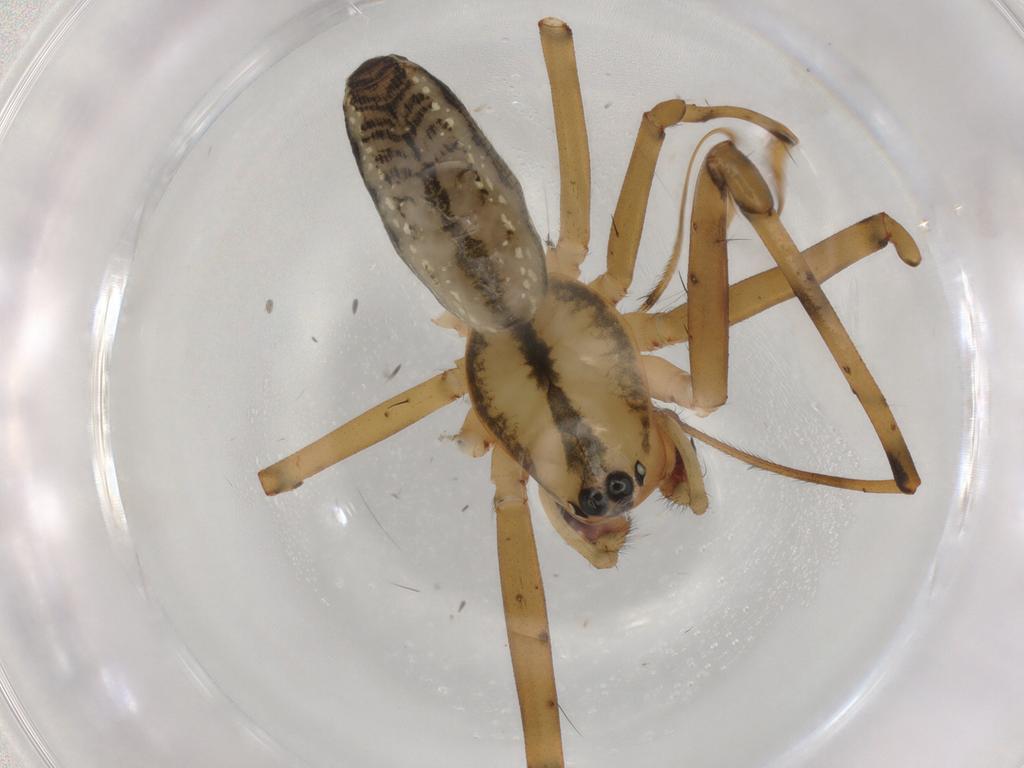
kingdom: Animalia
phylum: Arthropoda
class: Arachnida
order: Araneae
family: Linyphiidae
